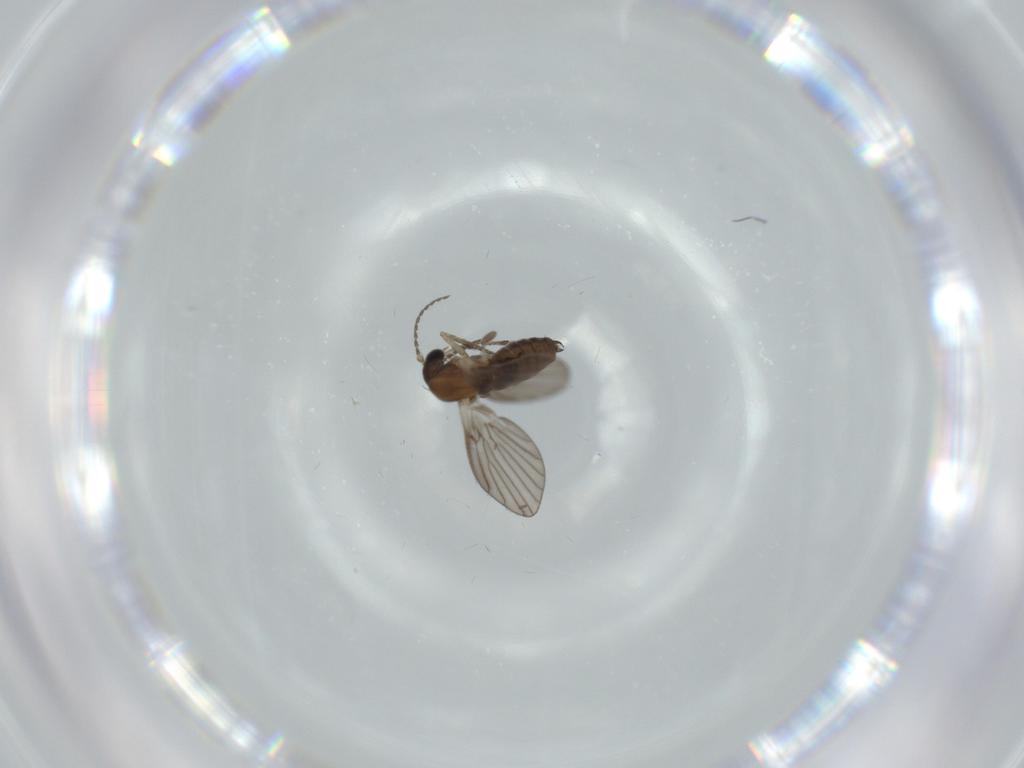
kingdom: Animalia
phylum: Arthropoda
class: Insecta
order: Diptera
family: Psychodidae
